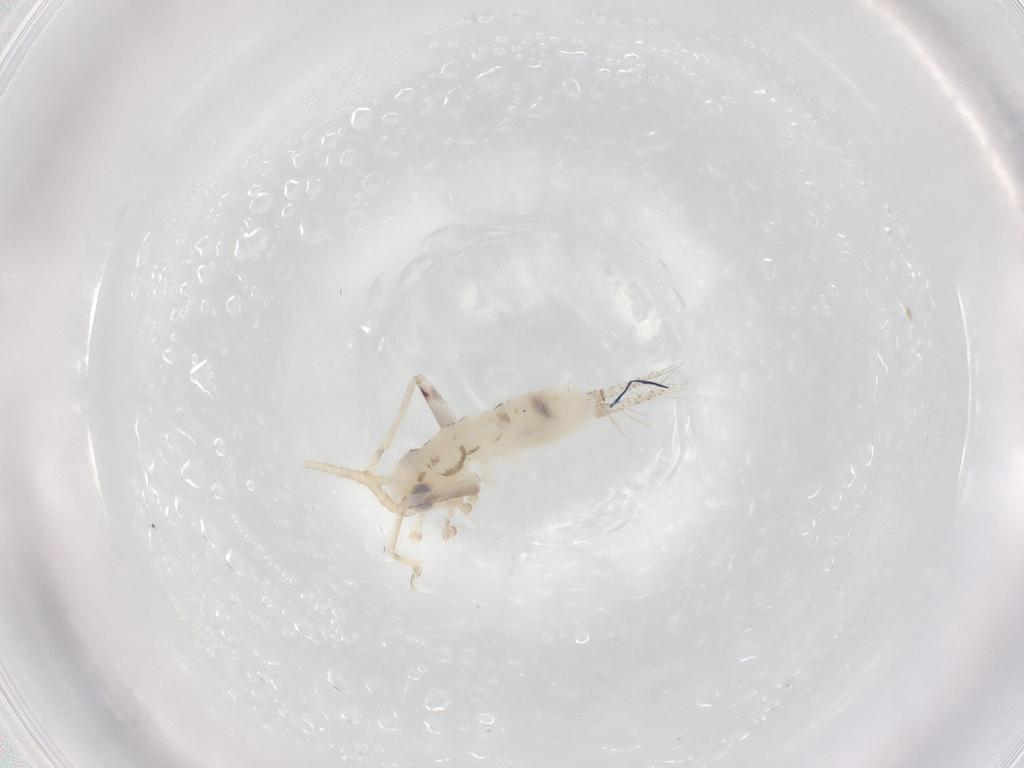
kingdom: Animalia
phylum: Arthropoda
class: Insecta
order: Orthoptera
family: Trigonidiidae
